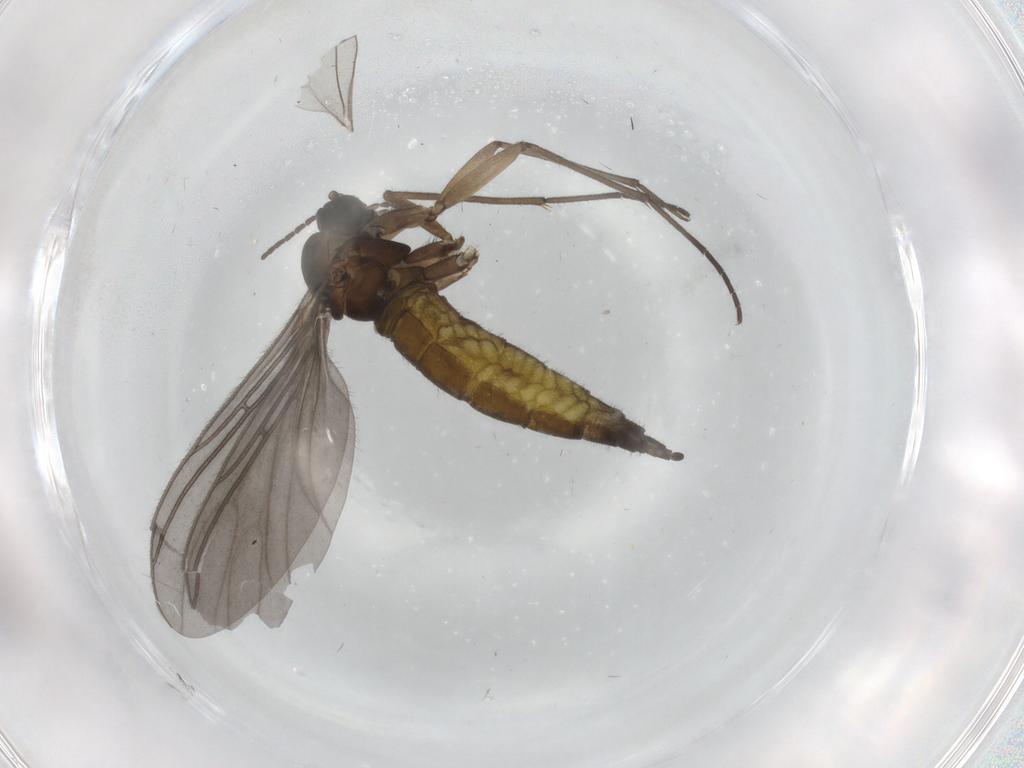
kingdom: Animalia
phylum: Arthropoda
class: Insecta
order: Diptera
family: Sciaridae
